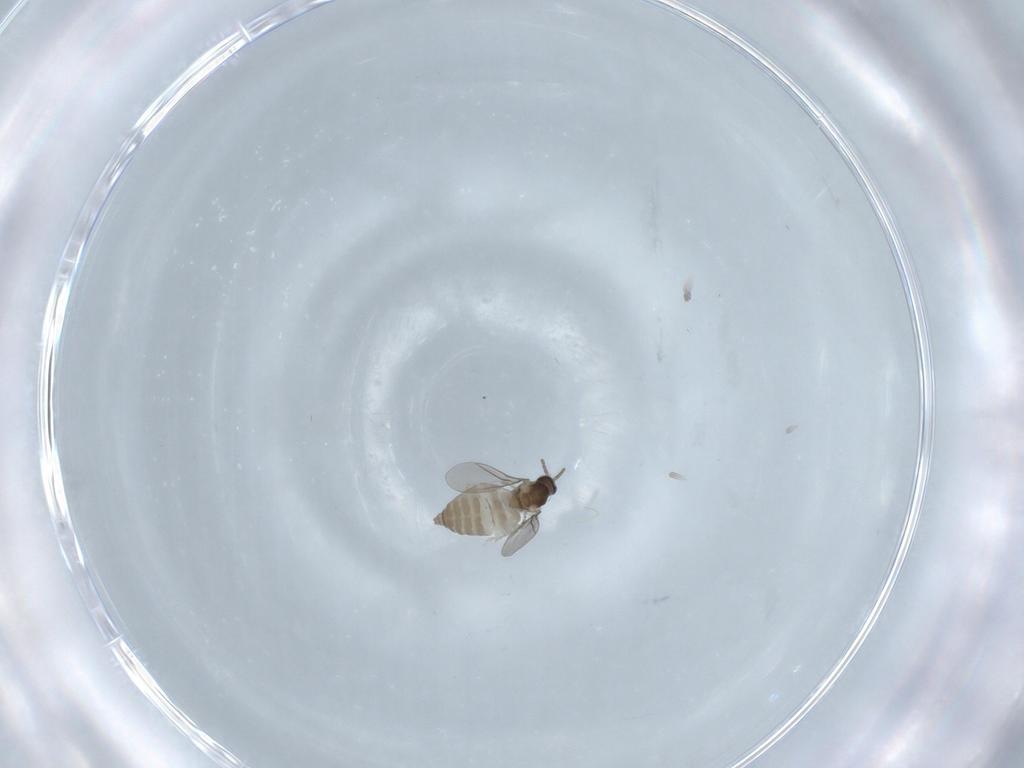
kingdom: Animalia
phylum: Arthropoda
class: Insecta
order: Diptera
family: Cecidomyiidae
